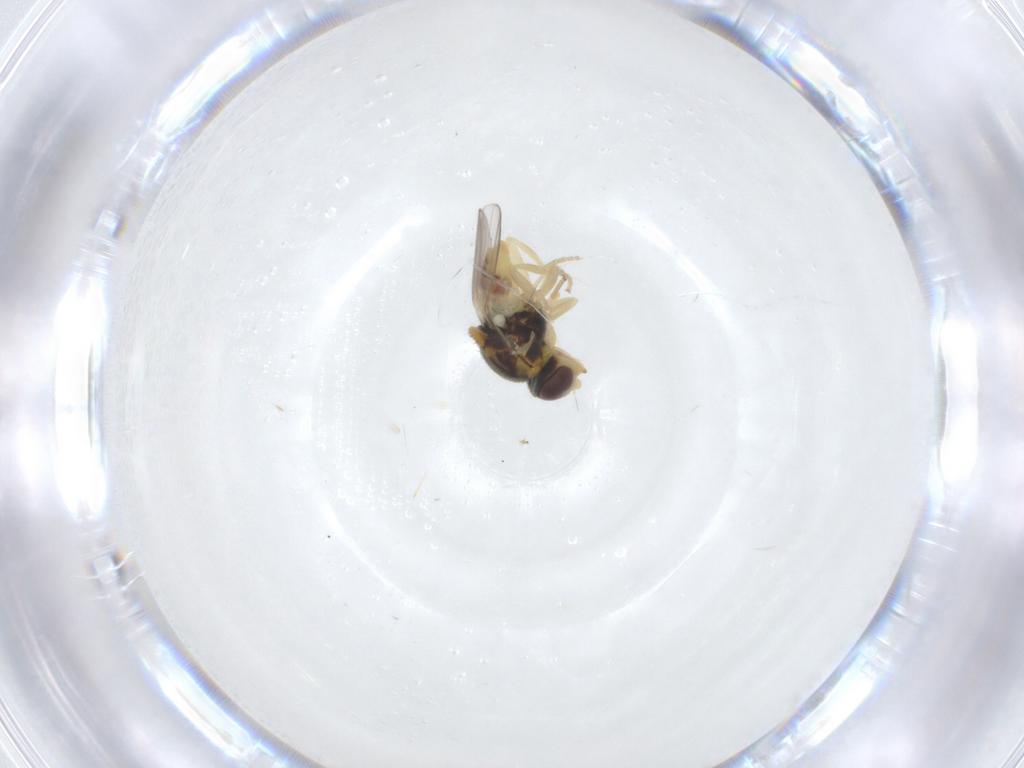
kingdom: Animalia
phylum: Arthropoda
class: Insecta
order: Diptera
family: Chloropidae
